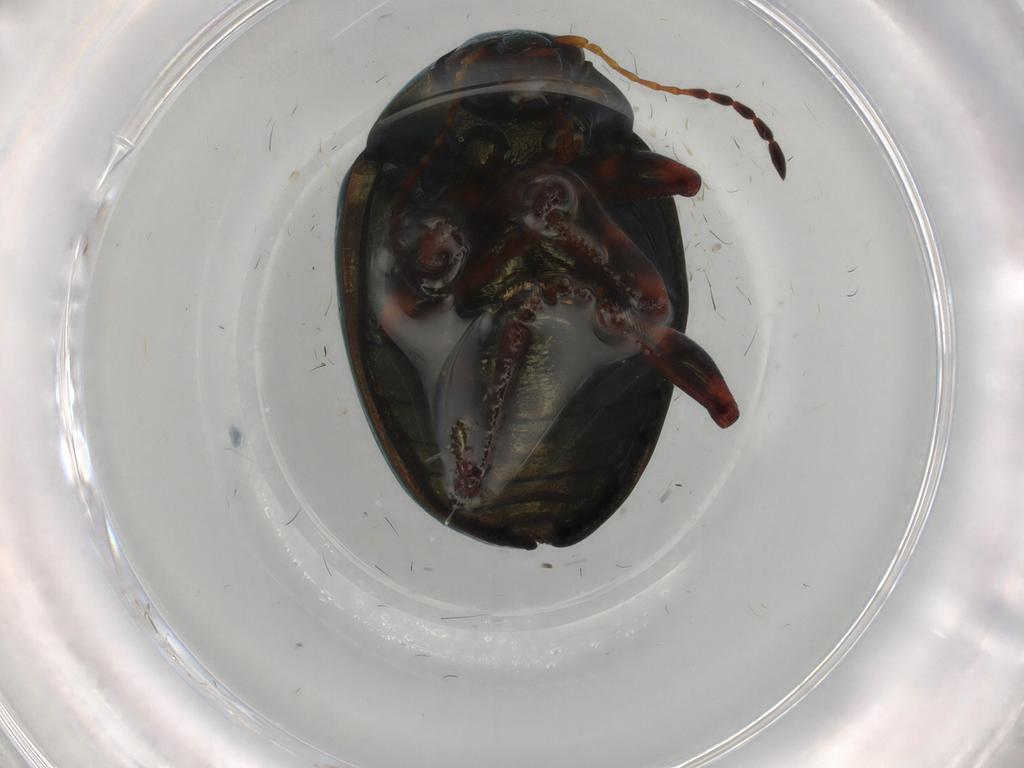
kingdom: Animalia
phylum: Arthropoda
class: Insecta
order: Coleoptera
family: Chrysomelidae
